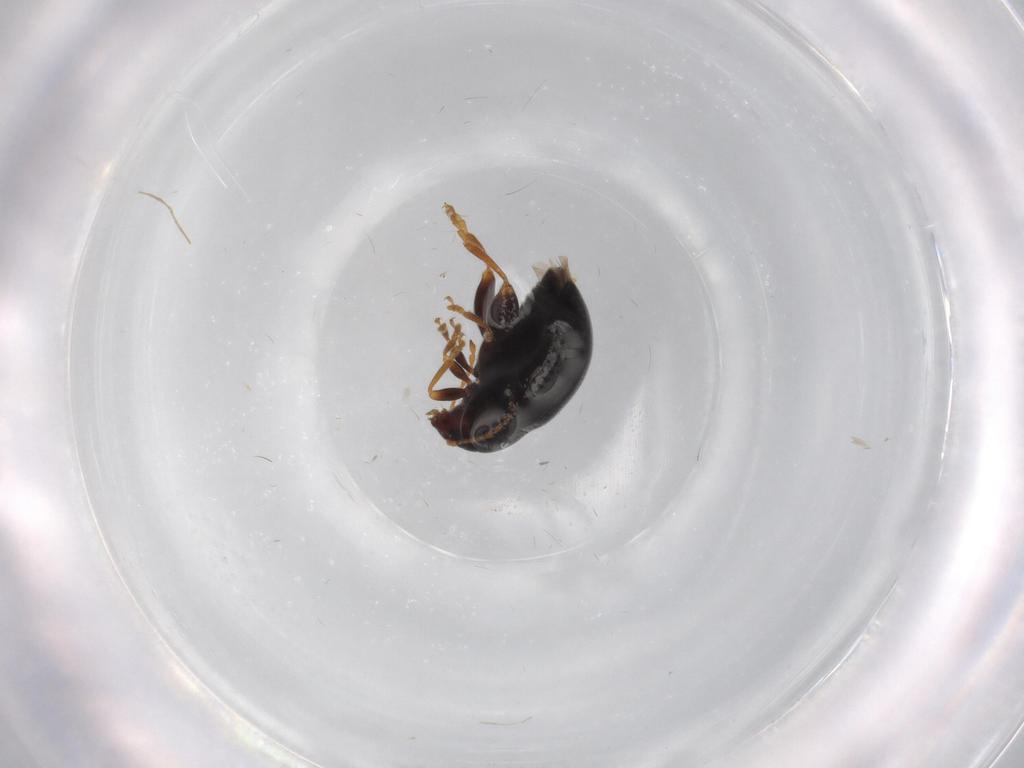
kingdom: Animalia
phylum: Arthropoda
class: Insecta
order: Coleoptera
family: Chrysomelidae
